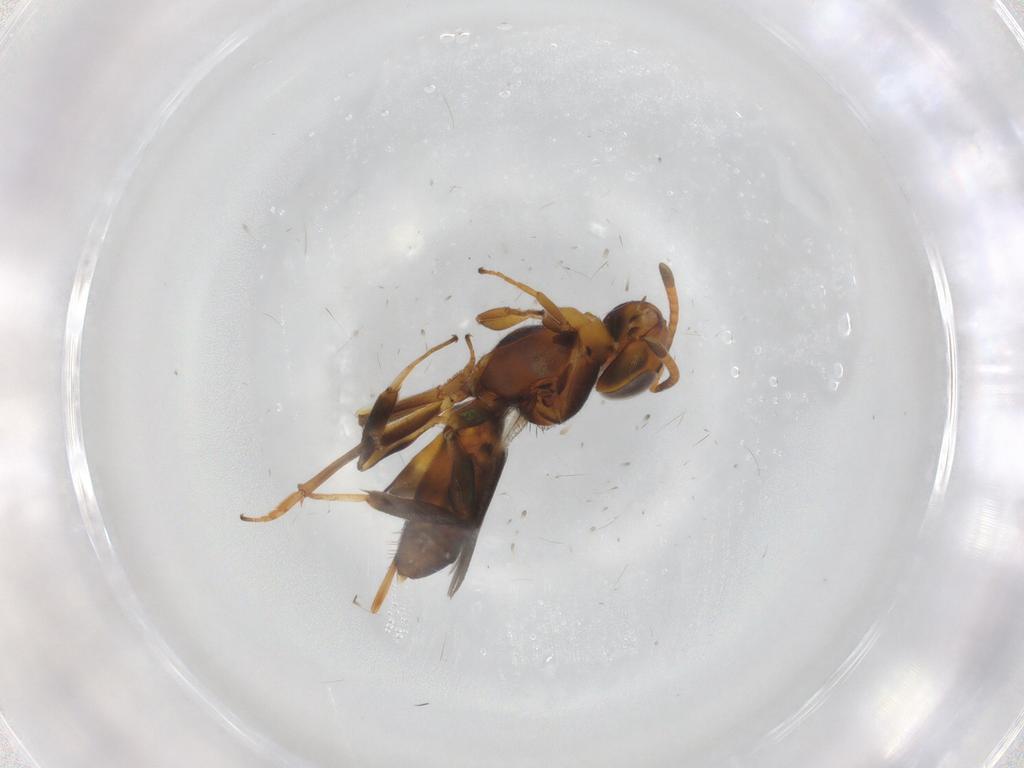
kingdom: Animalia
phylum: Arthropoda
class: Insecta
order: Hymenoptera
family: Scelionidae
